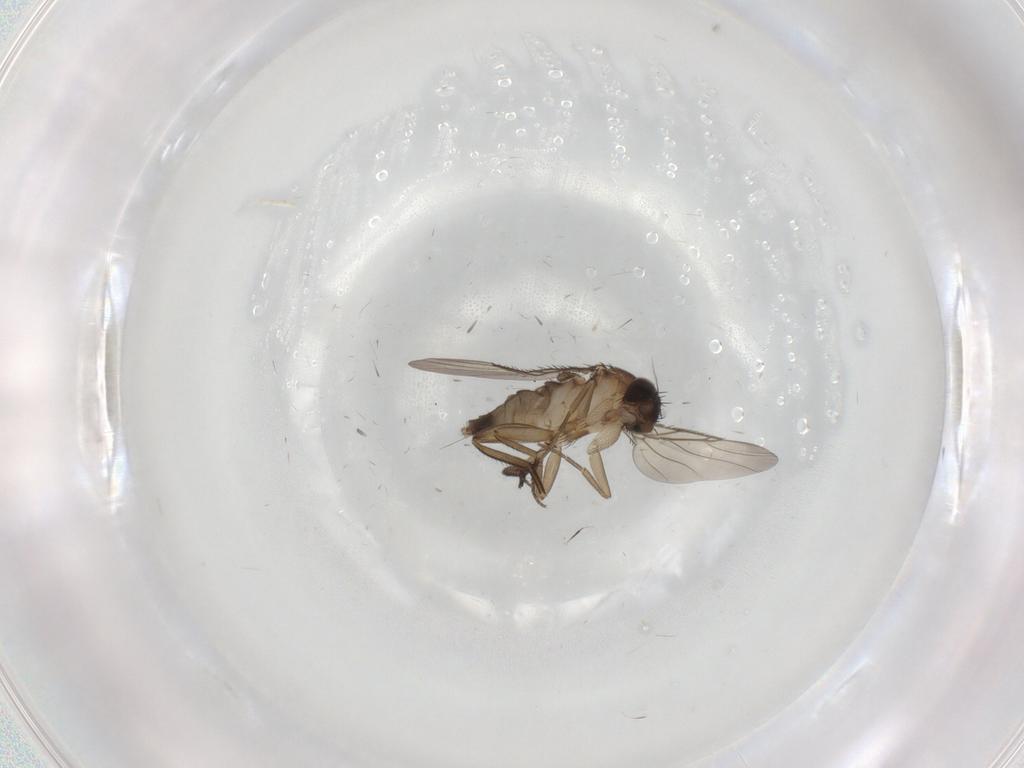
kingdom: Animalia
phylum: Arthropoda
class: Insecta
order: Diptera
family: Phoridae
